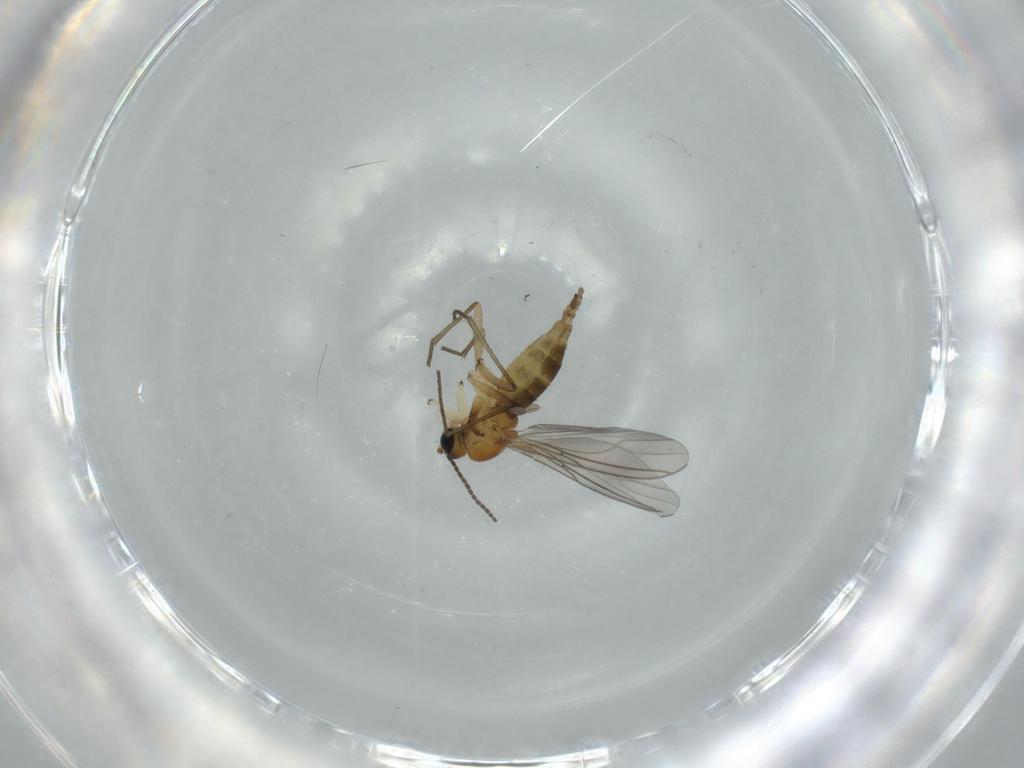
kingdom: Animalia
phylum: Arthropoda
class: Insecta
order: Diptera
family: Sciaridae
